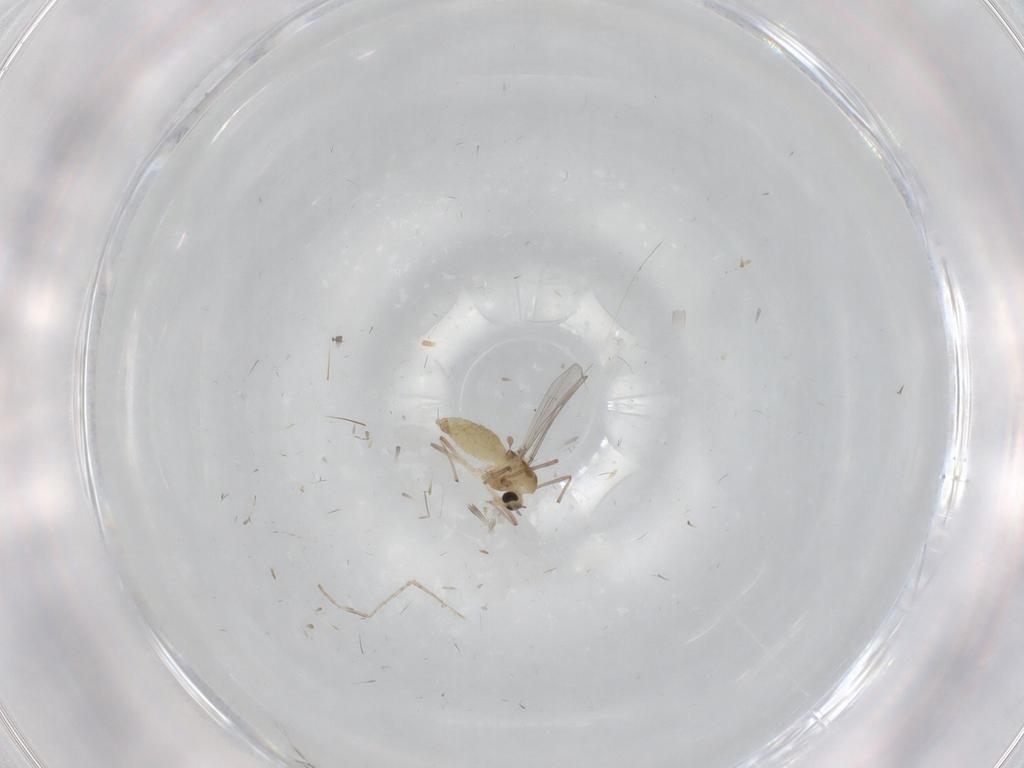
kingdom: Animalia
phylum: Arthropoda
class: Insecta
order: Diptera
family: Chironomidae
